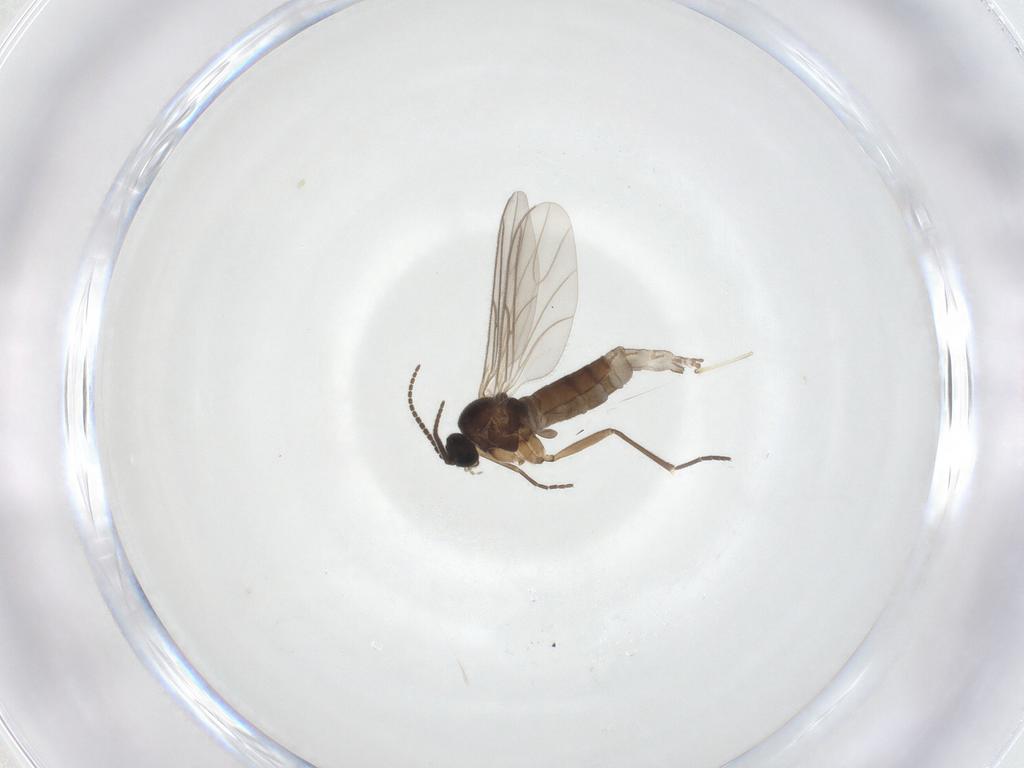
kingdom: Animalia
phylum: Arthropoda
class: Insecta
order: Diptera
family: Sciaridae
